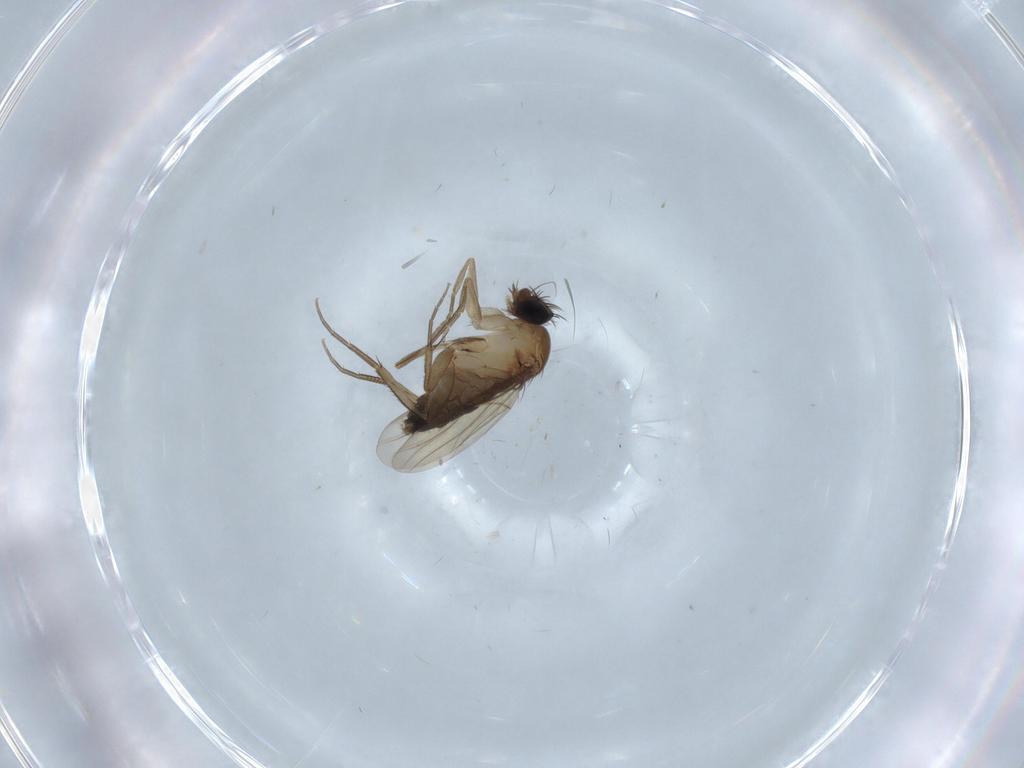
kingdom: Animalia
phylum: Arthropoda
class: Insecta
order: Diptera
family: Phoridae
